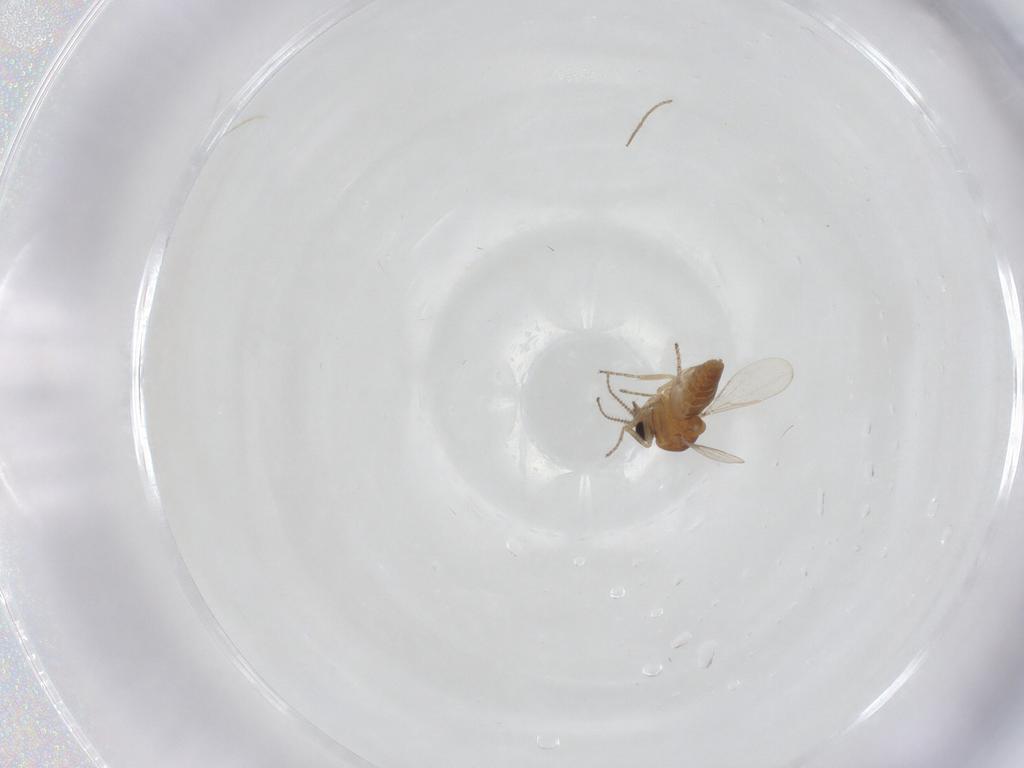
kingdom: Animalia
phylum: Arthropoda
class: Insecta
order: Diptera
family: Ceratopogonidae
